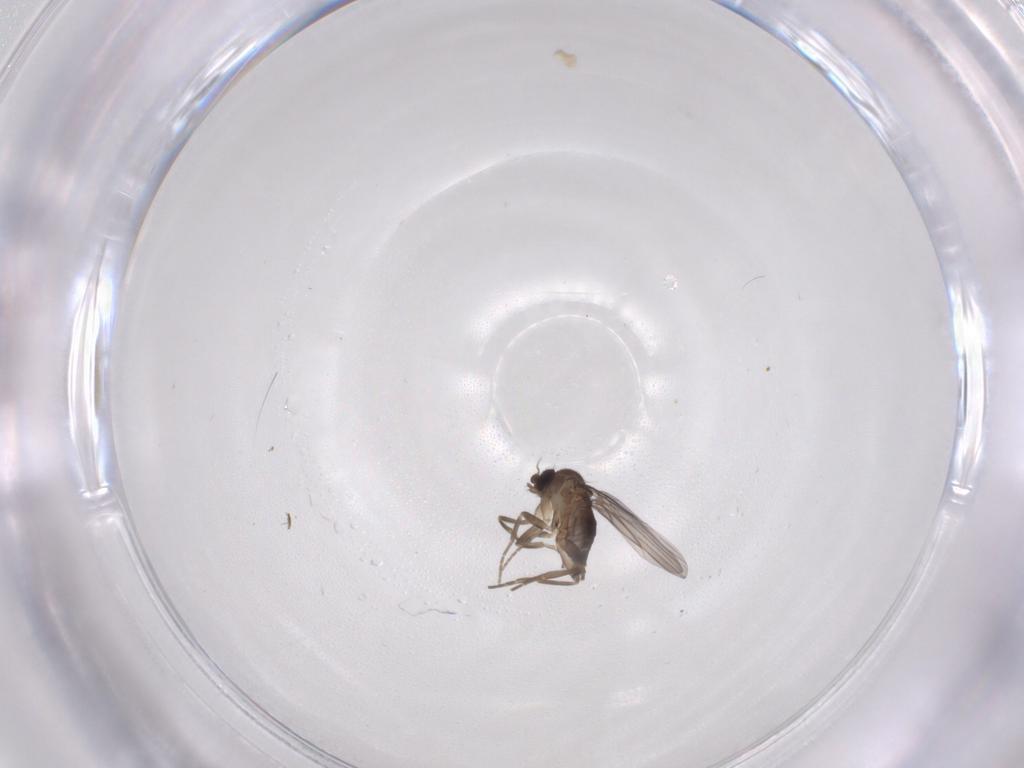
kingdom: Animalia
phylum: Arthropoda
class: Insecta
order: Diptera
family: Phoridae
